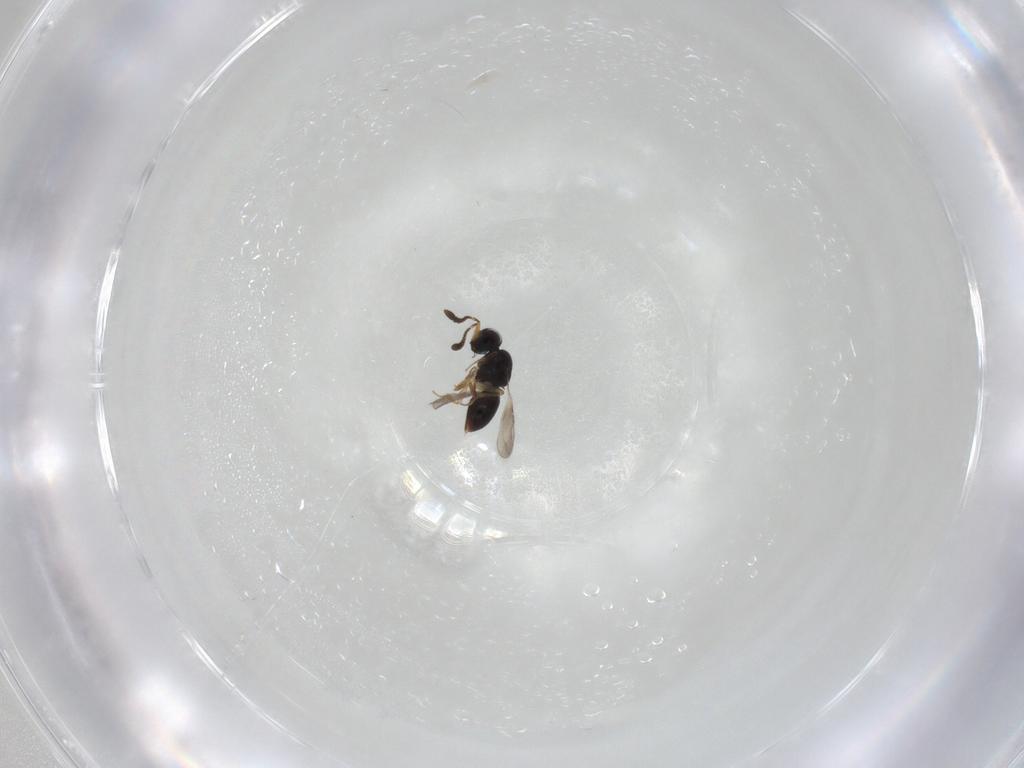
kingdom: Animalia
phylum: Arthropoda
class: Insecta
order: Hymenoptera
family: Ceraphronidae
